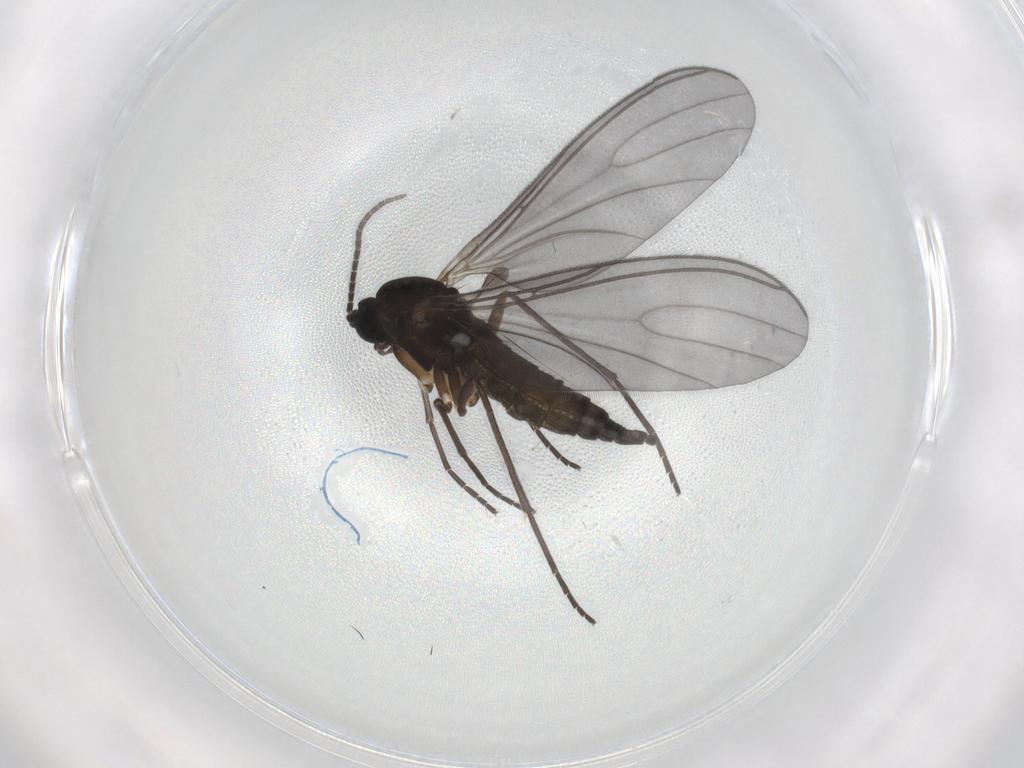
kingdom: Animalia
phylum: Arthropoda
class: Insecta
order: Diptera
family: Sciaridae
